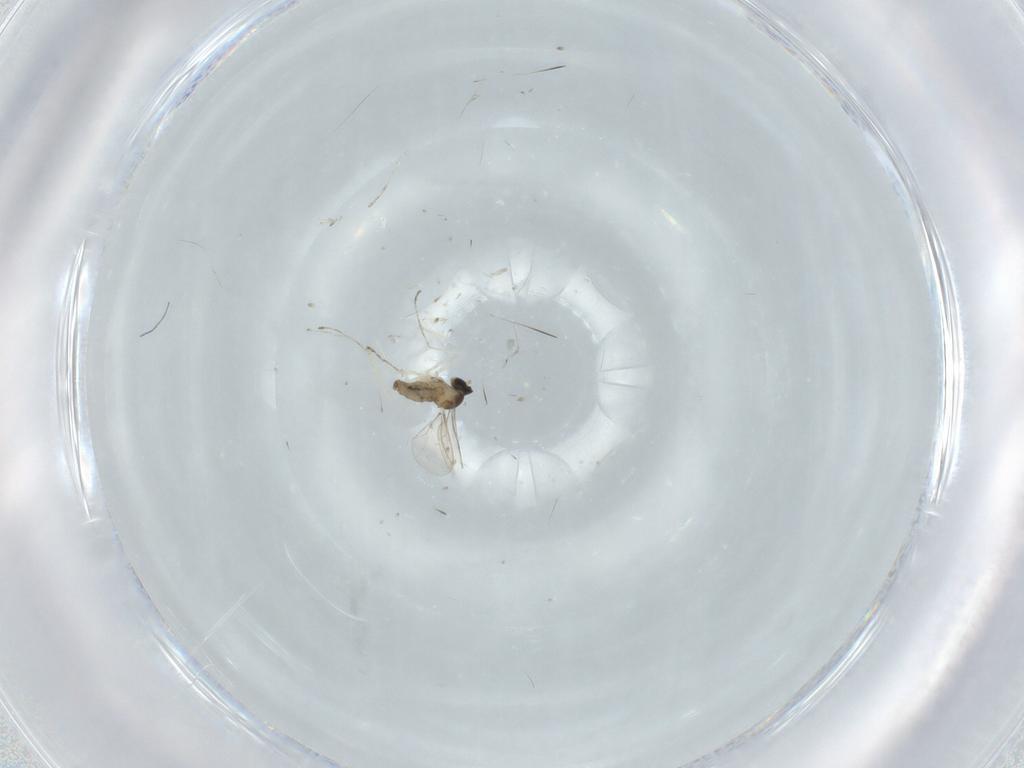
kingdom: Animalia
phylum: Arthropoda
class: Insecta
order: Diptera
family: Cecidomyiidae
